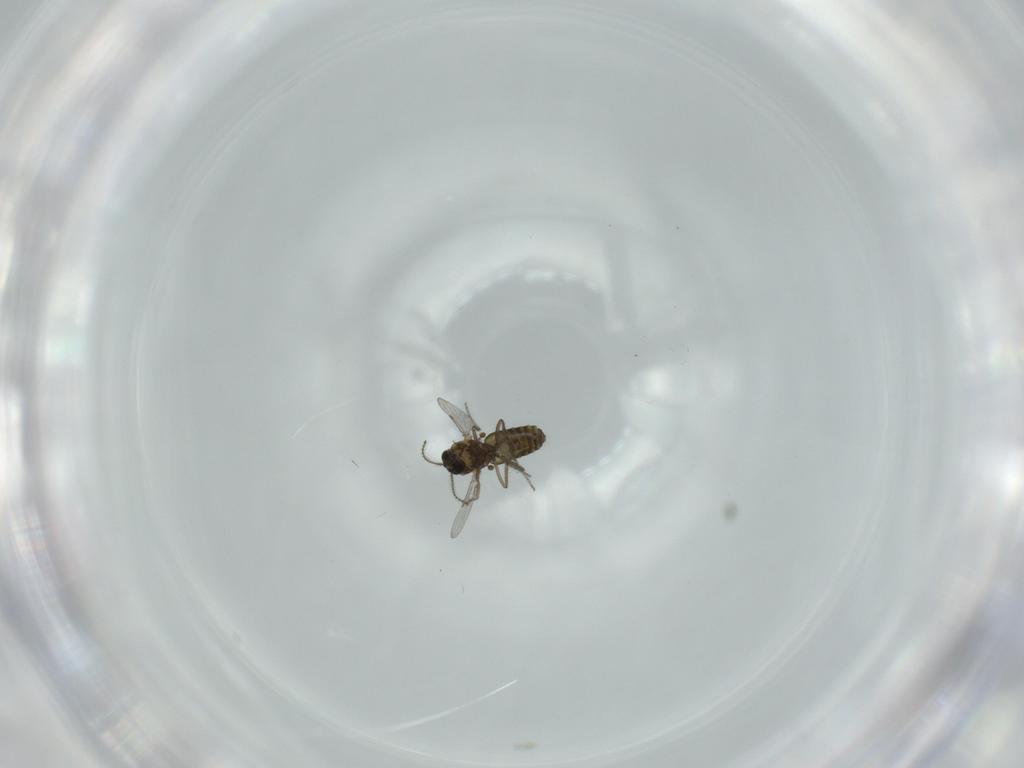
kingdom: Animalia
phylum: Arthropoda
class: Insecta
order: Diptera
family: Ceratopogonidae
